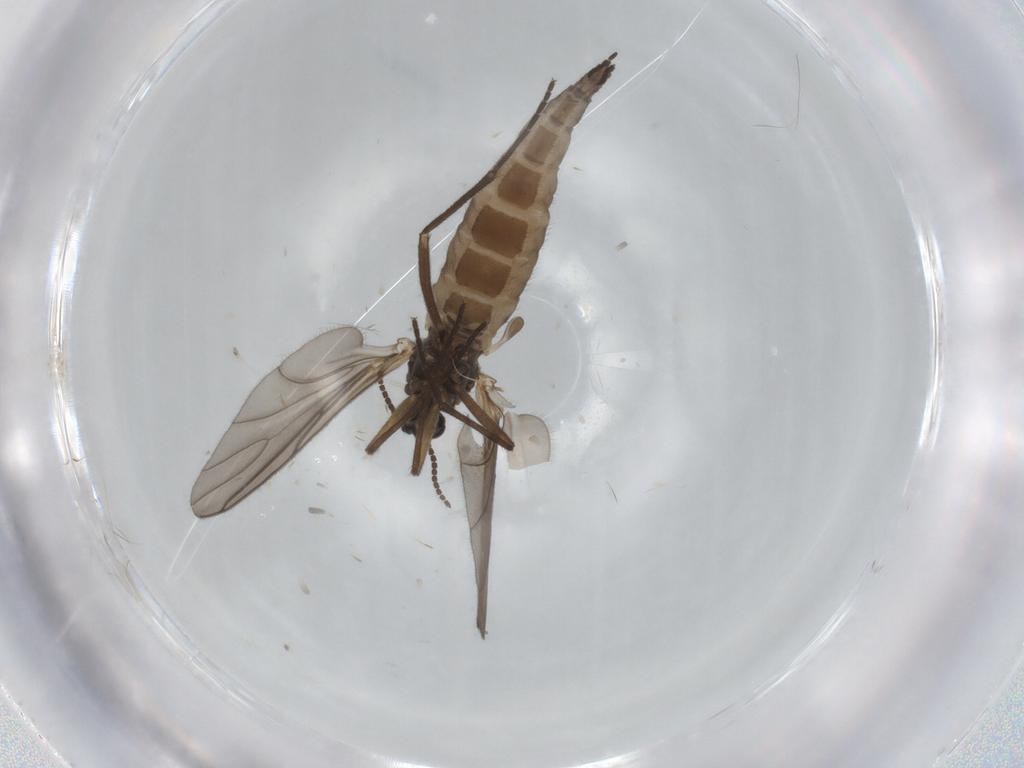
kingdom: Animalia
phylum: Arthropoda
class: Insecta
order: Diptera
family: Sciaridae
